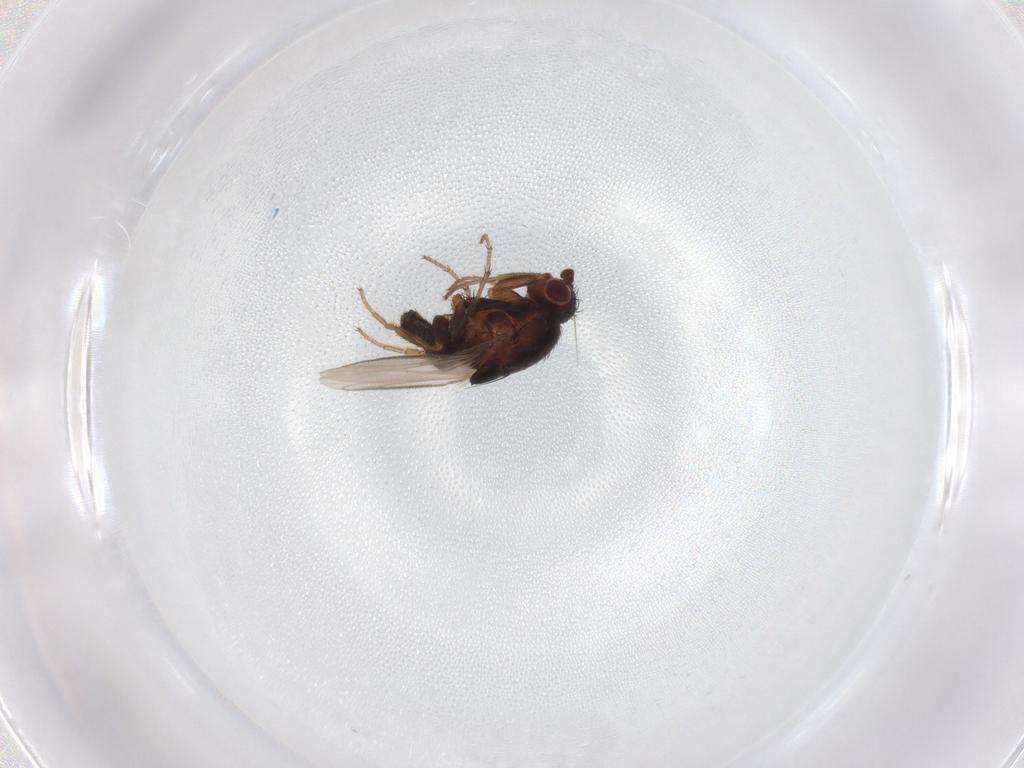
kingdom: Animalia
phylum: Arthropoda
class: Insecta
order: Diptera
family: Sphaeroceridae
